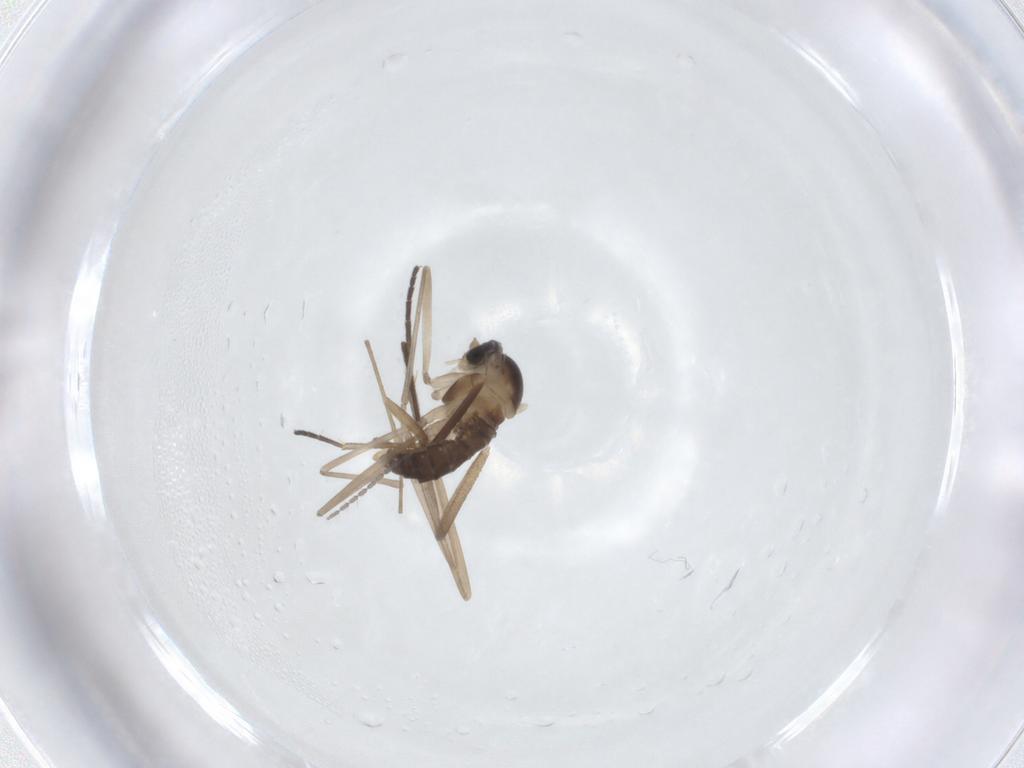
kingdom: Animalia
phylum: Arthropoda
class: Insecta
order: Diptera
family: Sciaridae
